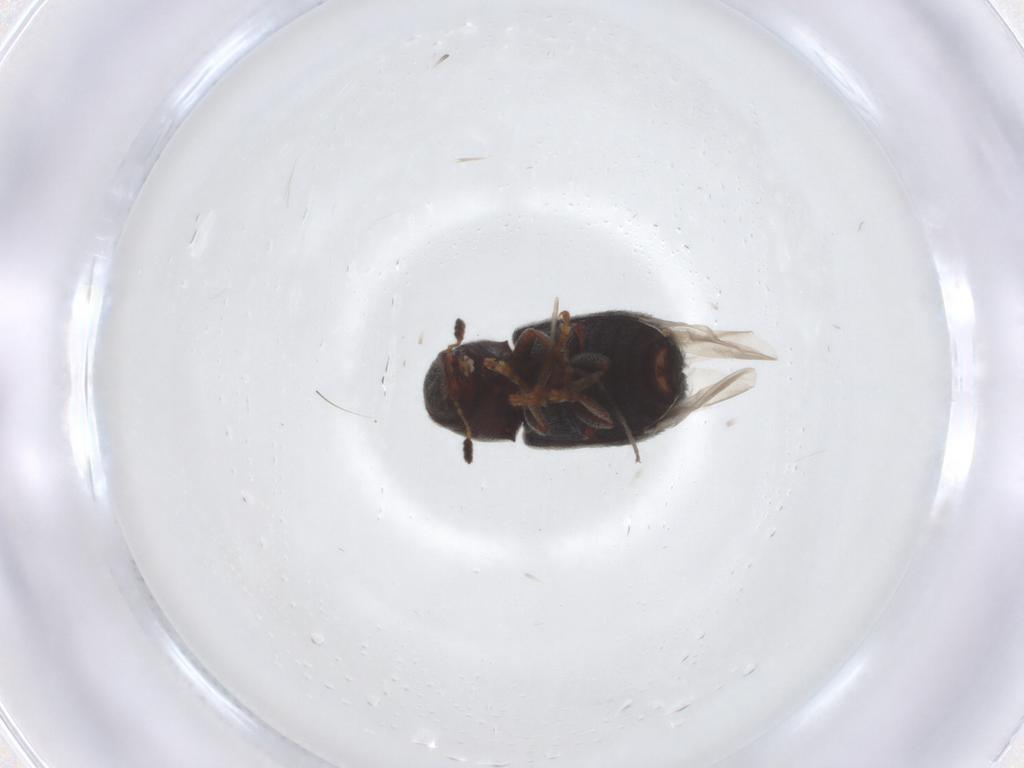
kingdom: Animalia
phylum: Arthropoda
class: Insecta
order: Coleoptera
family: Anthribidae
